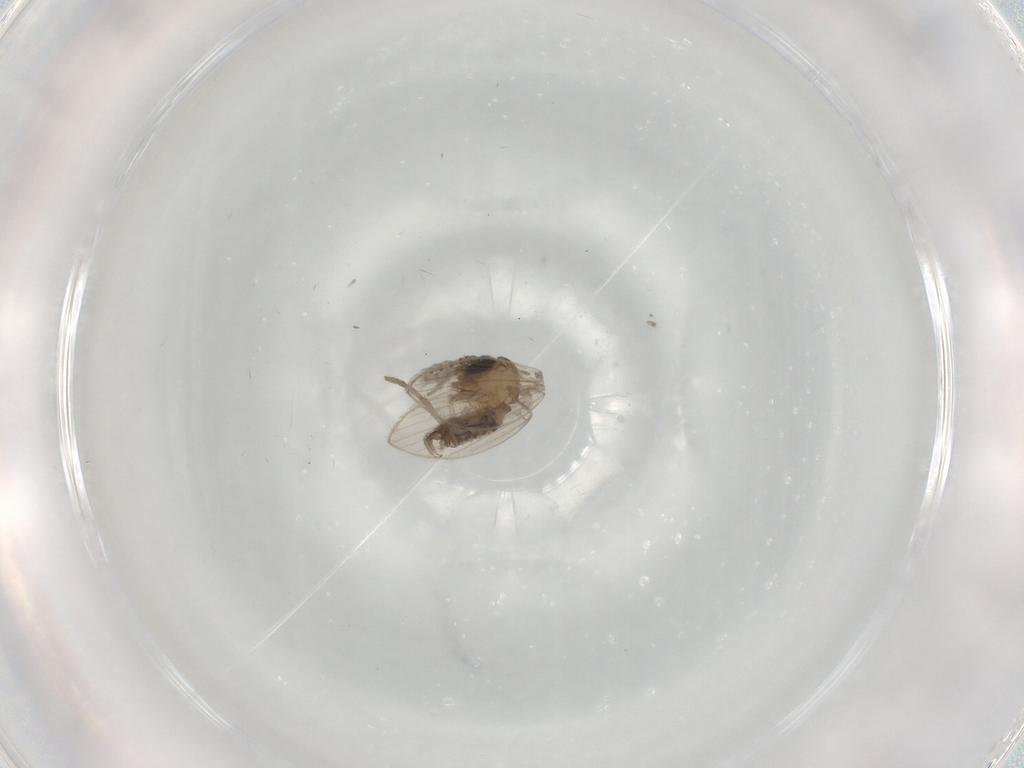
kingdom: Animalia
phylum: Arthropoda
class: Insecta
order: Diptera
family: Psychodidae
